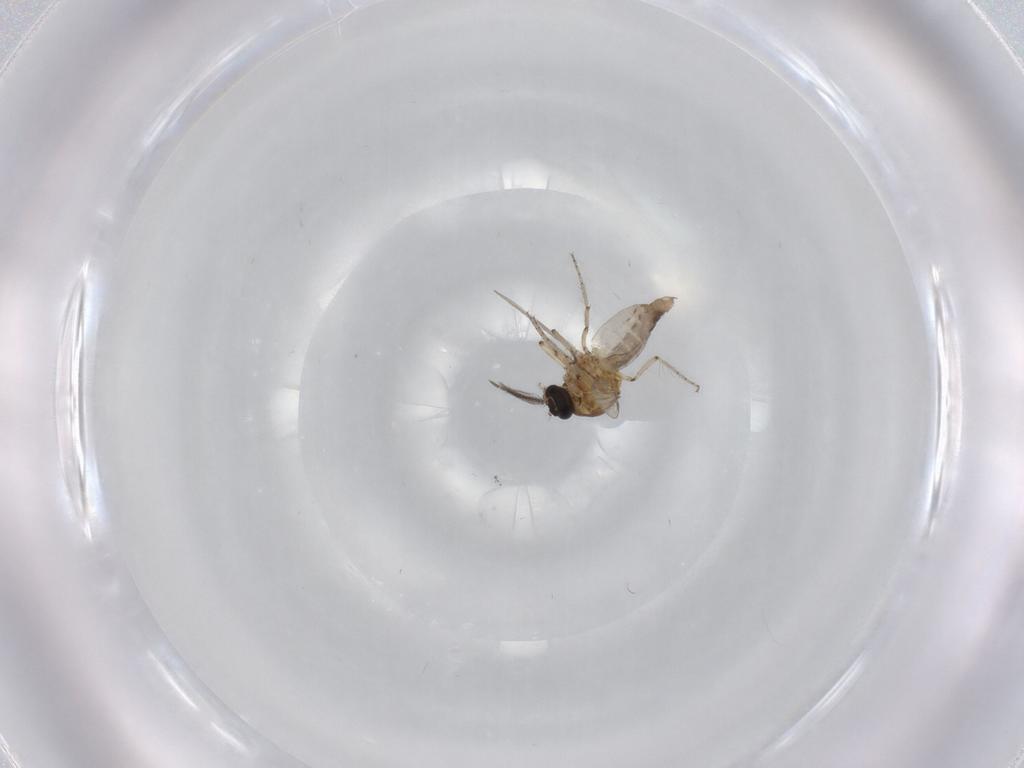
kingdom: Animalia
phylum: Arthropoda
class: Insecta
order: Diptera
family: Ceratopogonidae
